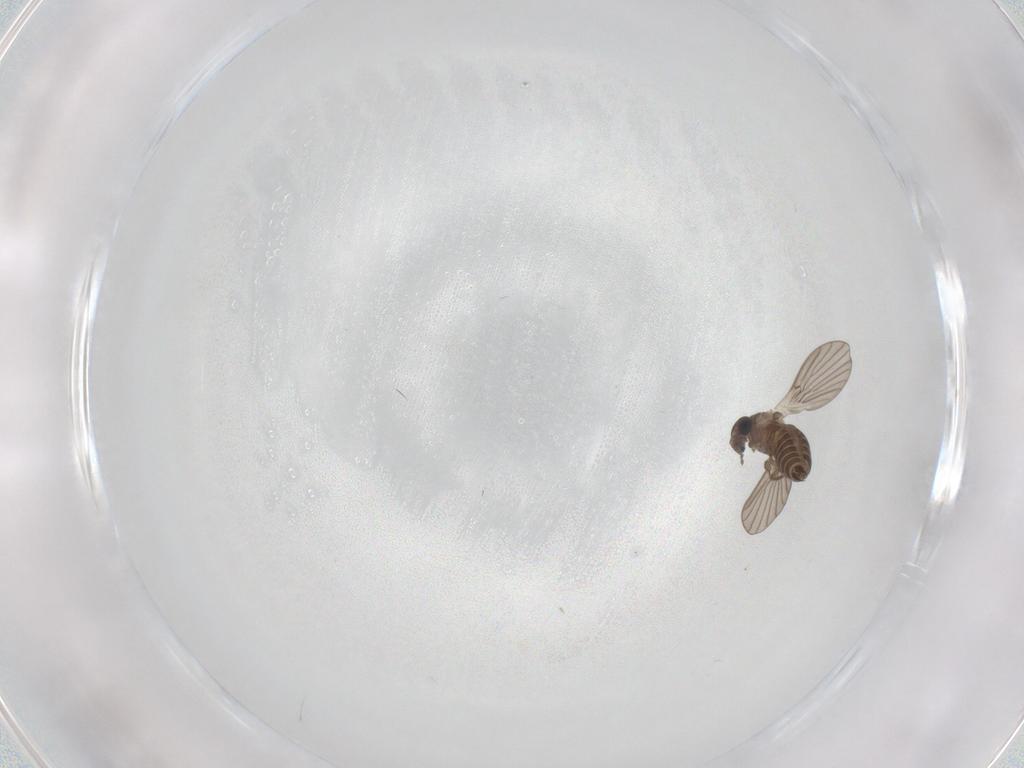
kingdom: Animalia
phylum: Arthropoda
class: Insecta
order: Diptera
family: Cecidomyiidae
